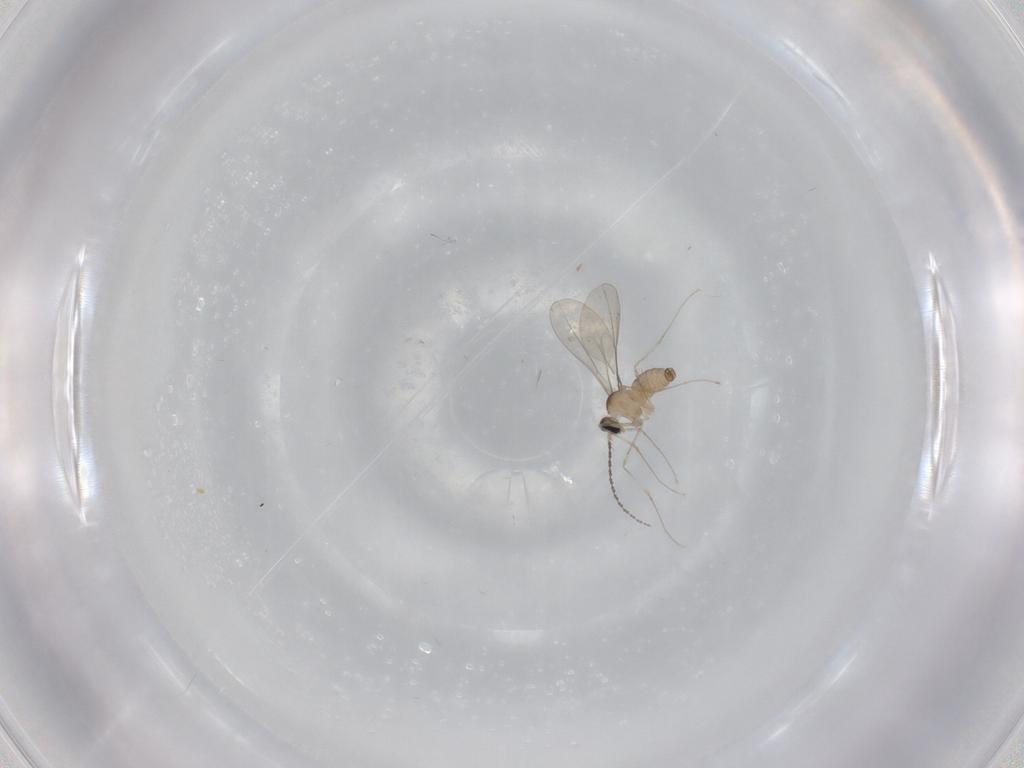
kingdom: Animalia
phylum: Arthropoda
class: Insecta
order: Diptera
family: Cecidomyiidae
